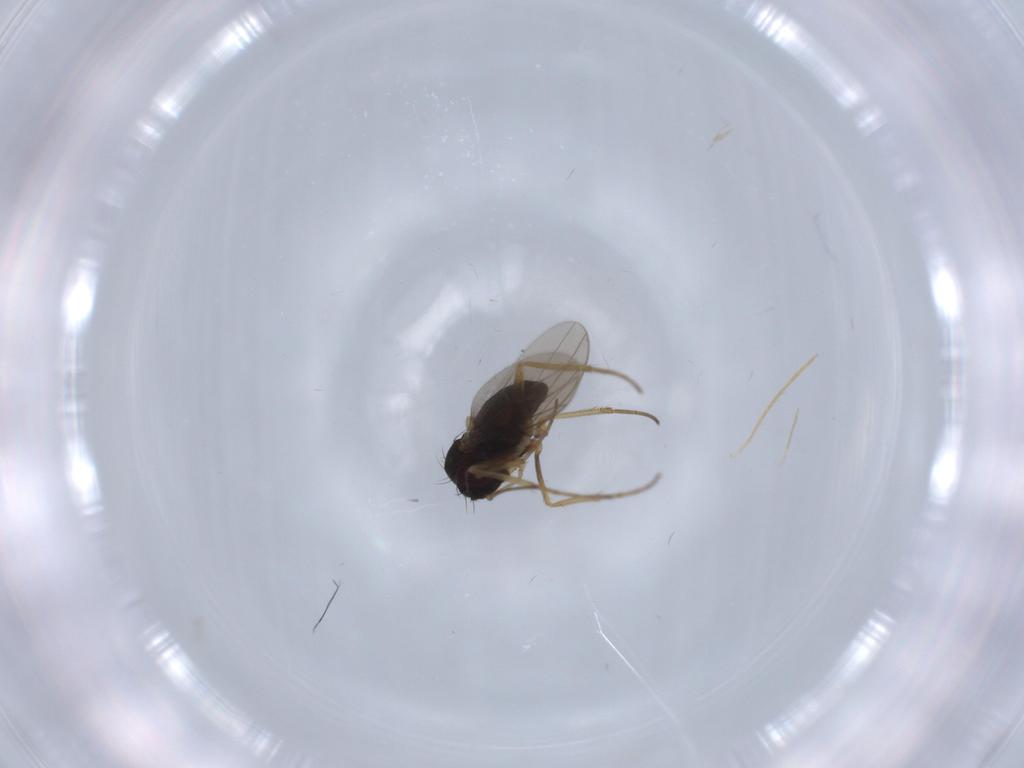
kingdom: Animalia
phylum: Arthropoda
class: Insecta
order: Diptera
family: Dolichopodidae
